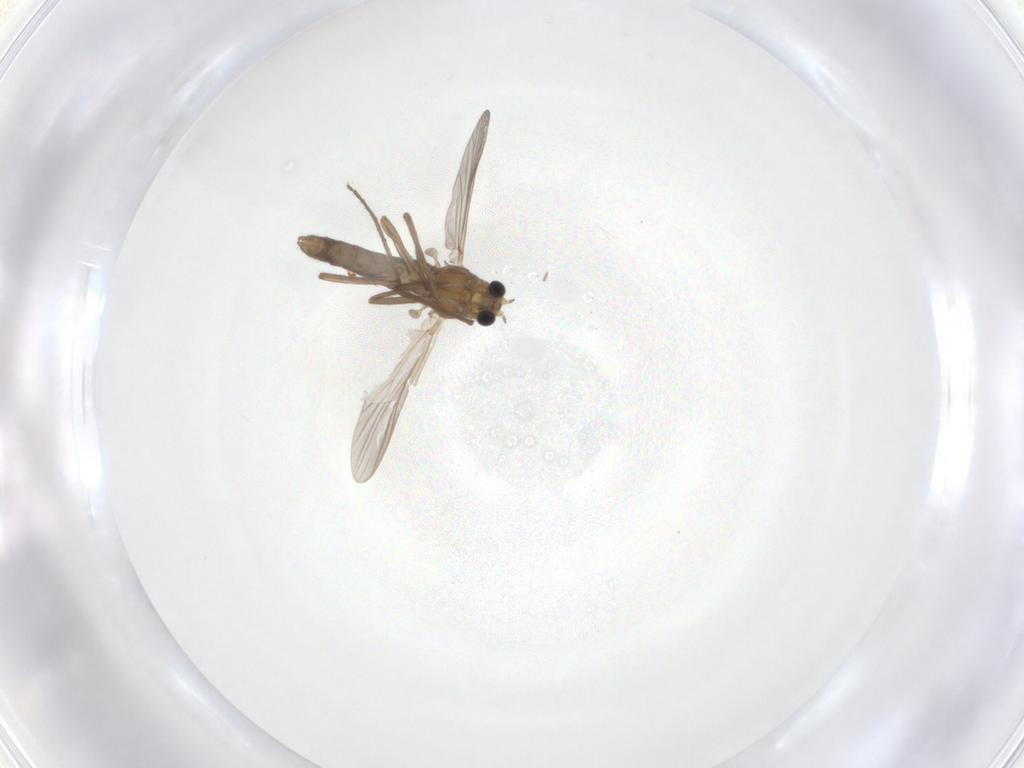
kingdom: Animalia
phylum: Arthropoda
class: Insecta
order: Diptera
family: Chironomidae
